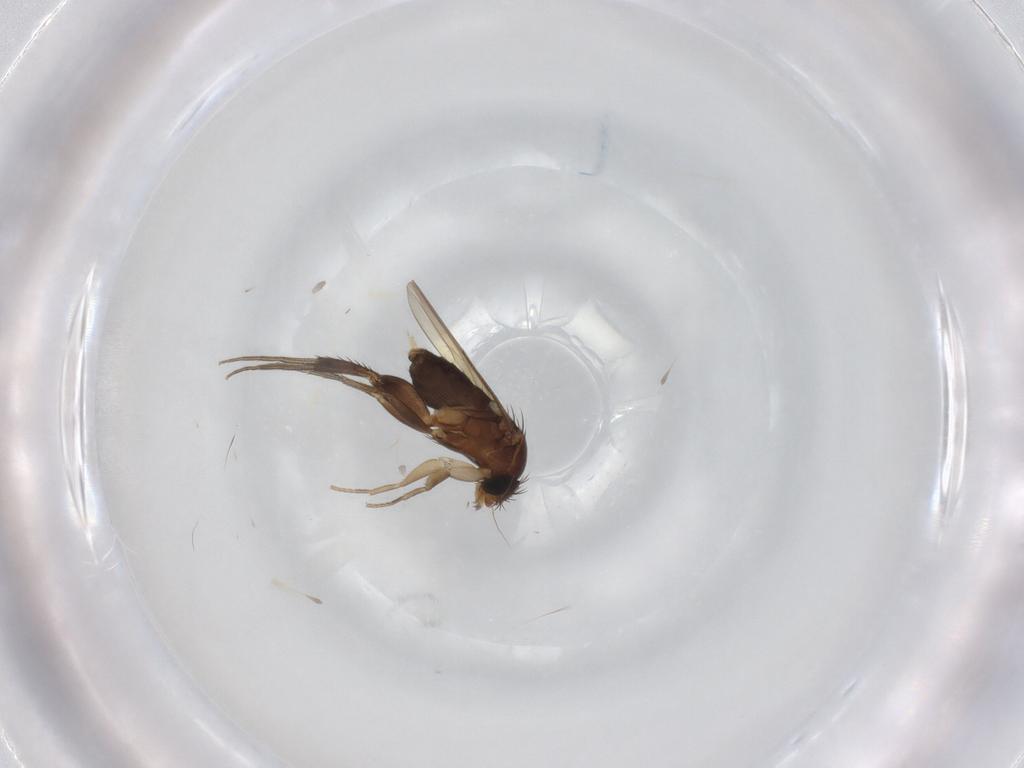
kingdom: Animalia
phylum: Arthropoda
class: Insecta
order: Diptera
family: Phoridae
